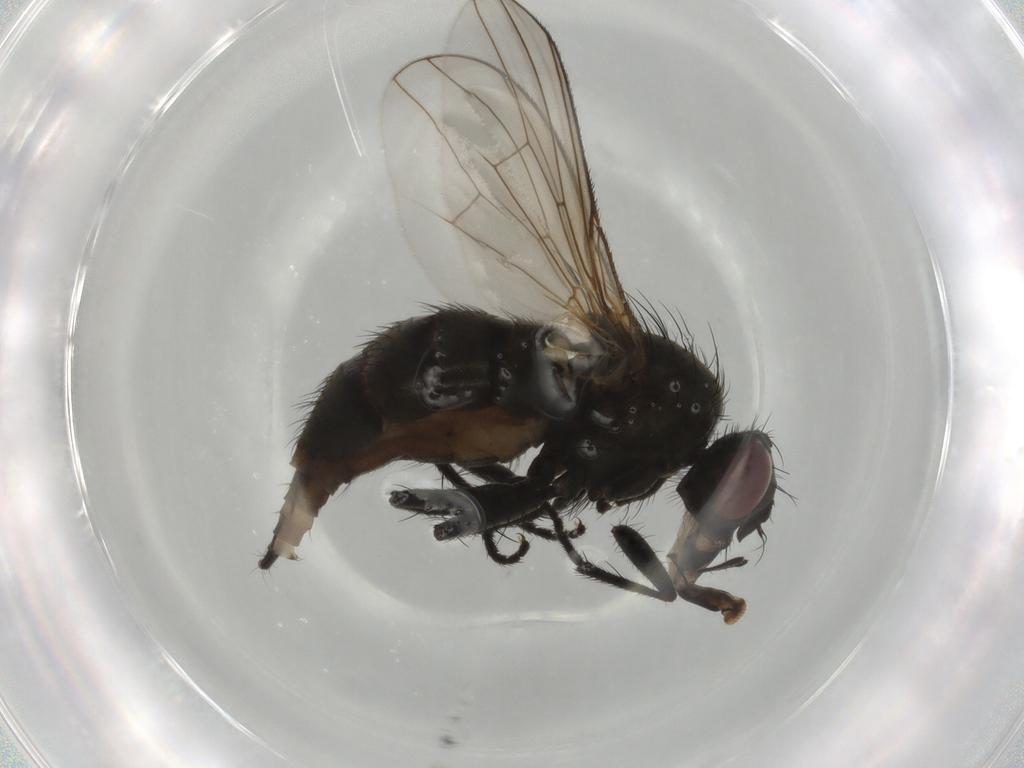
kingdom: Animalia
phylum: Arthropoda
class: Insecta
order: Diptera
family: Muscidae
